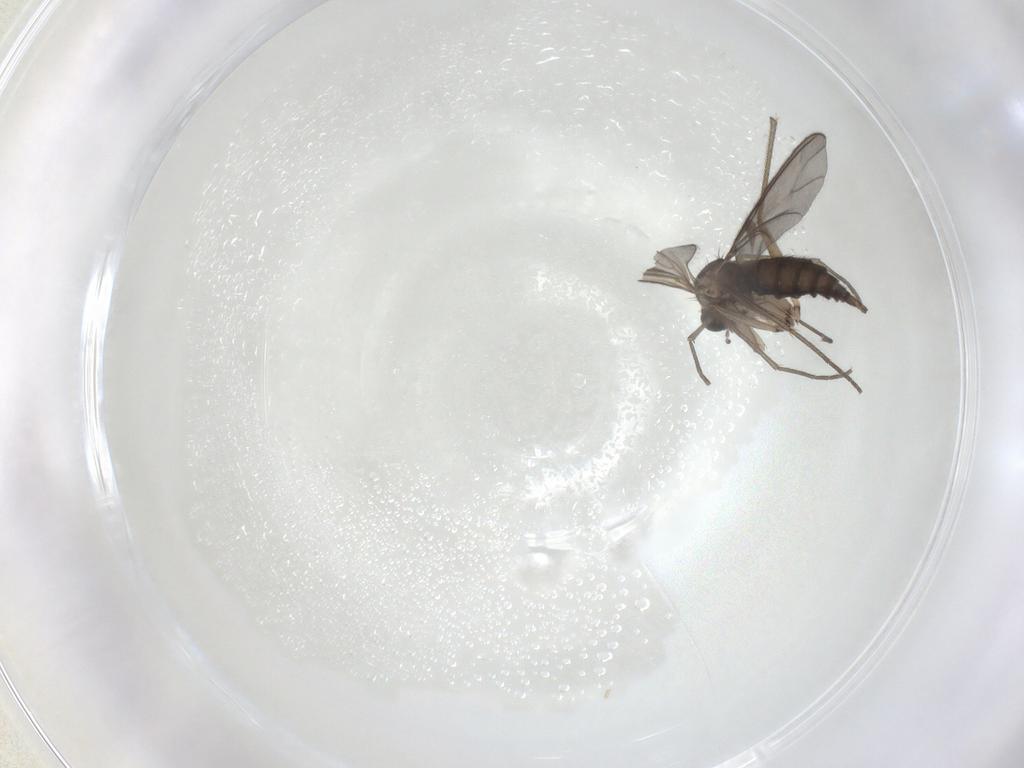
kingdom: Animalia
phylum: Arthropoda
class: Insecta
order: Diptera
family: Sciaridae
